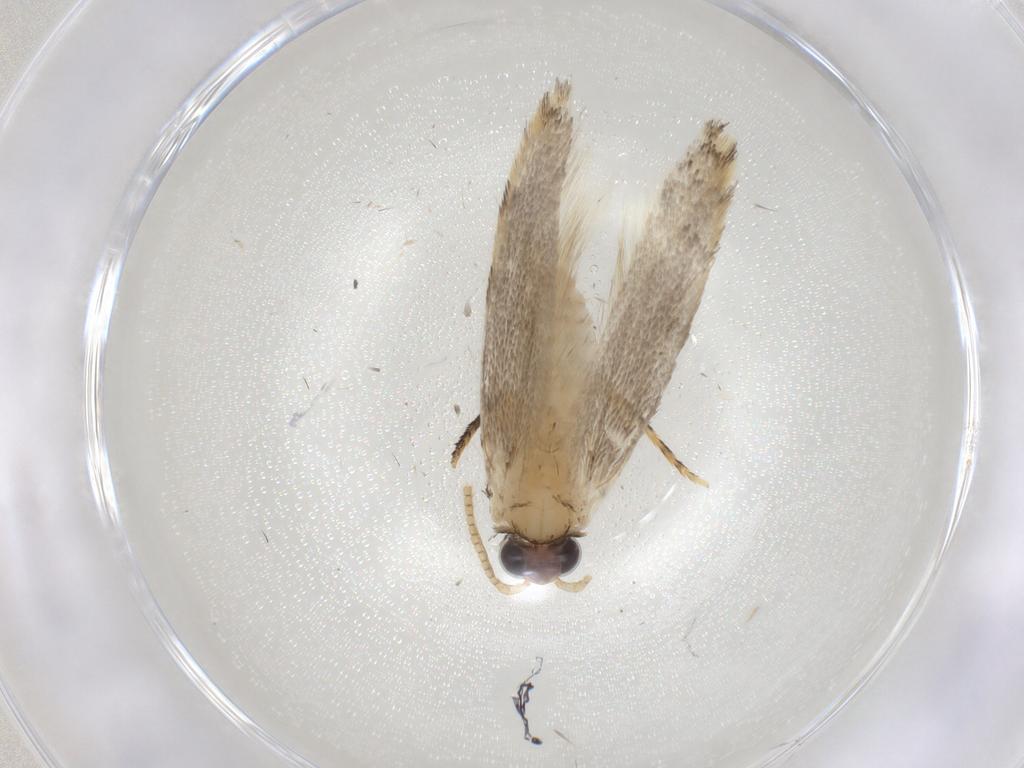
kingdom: Animalia
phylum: Arthropoda
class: Insecta
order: Lepidoptera
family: Tineidae
